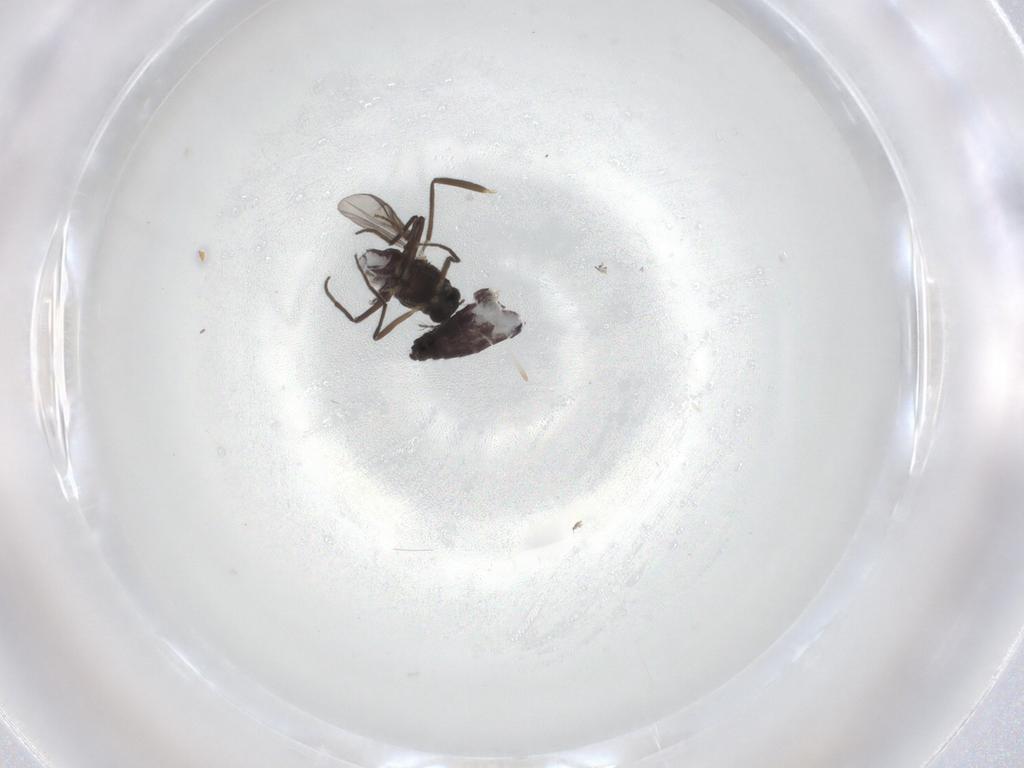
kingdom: Animalia
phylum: Arthropoda
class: Insecta
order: Diptera
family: Chironomidae
